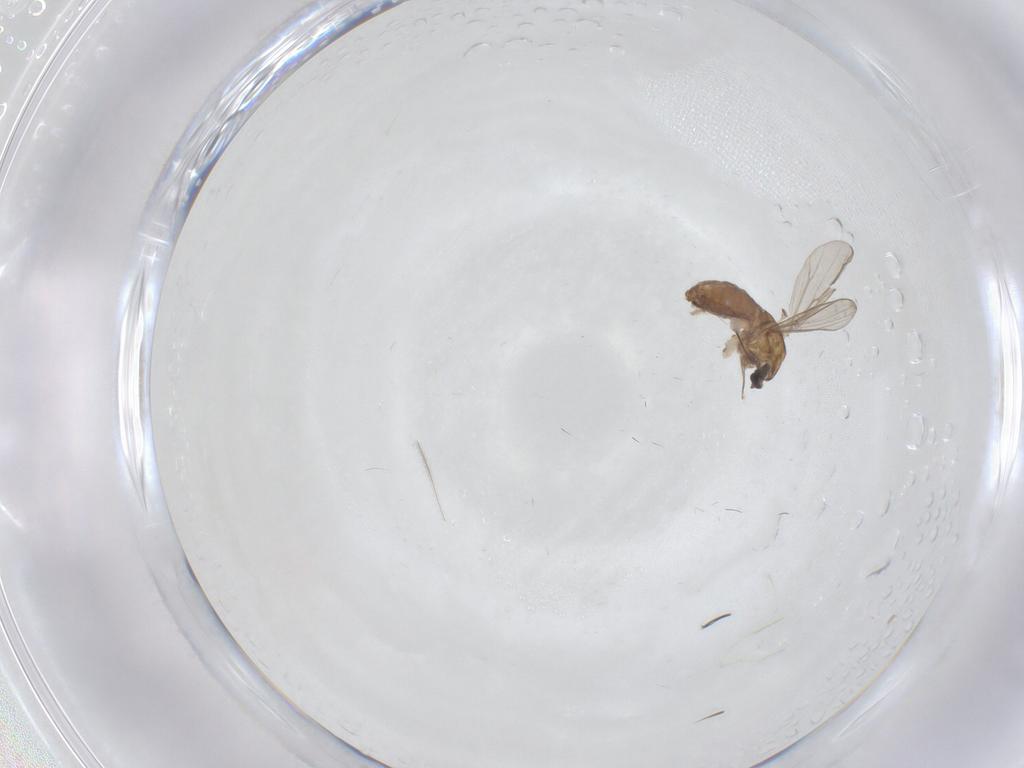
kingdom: Animalia
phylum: Arthropoda
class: Insecta
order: Diptera
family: Chironomidae
